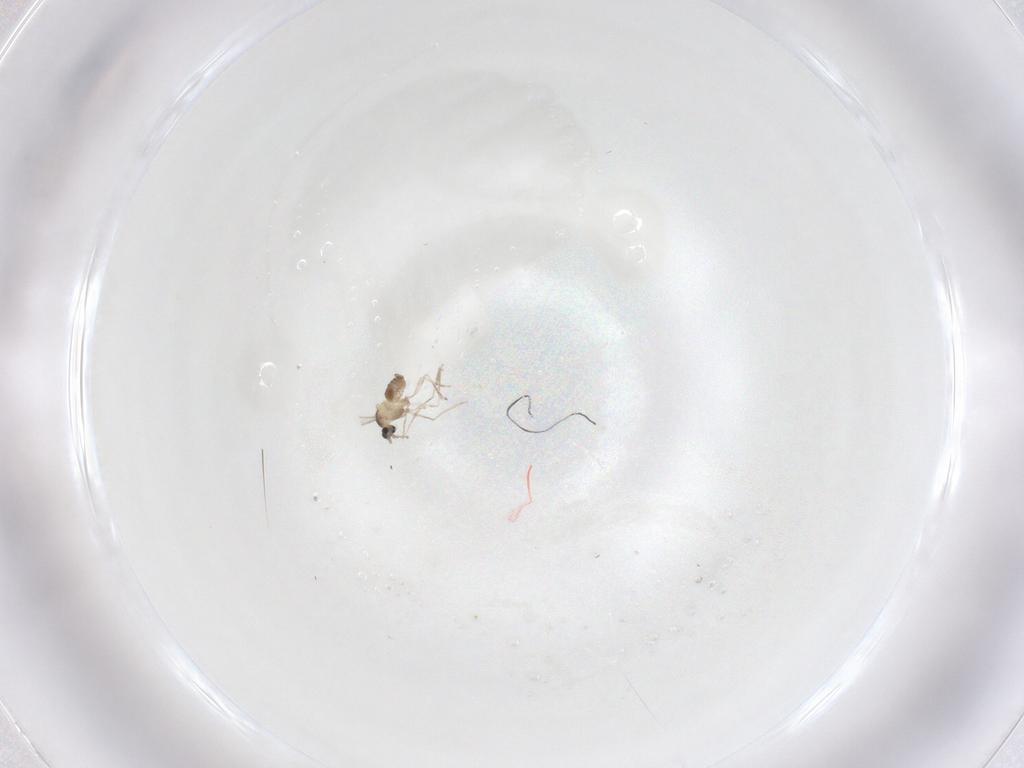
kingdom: Animalia
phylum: Arthropoda
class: Insecta
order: Diptera
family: Cecidomyiidae
